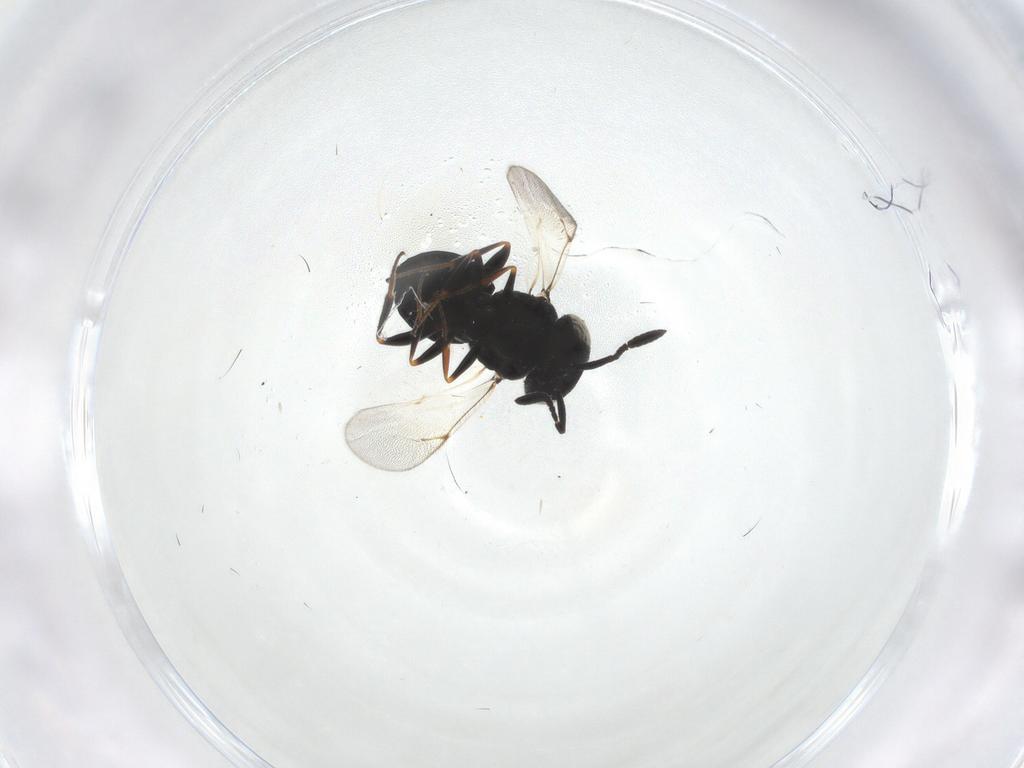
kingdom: Animalia
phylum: Arthropoda
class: Insecta
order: Hymenoptera
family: Scelionidae
